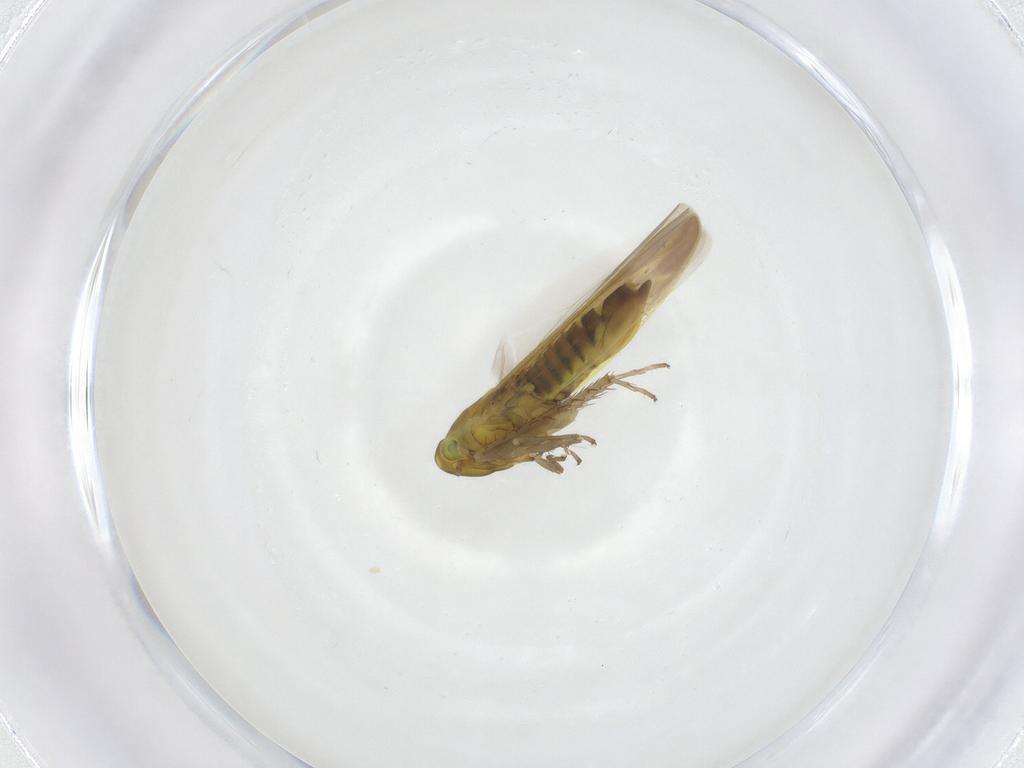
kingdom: Animalia
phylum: Arthropoda
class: Insecta
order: Hemiptera
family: Cicadellidae
